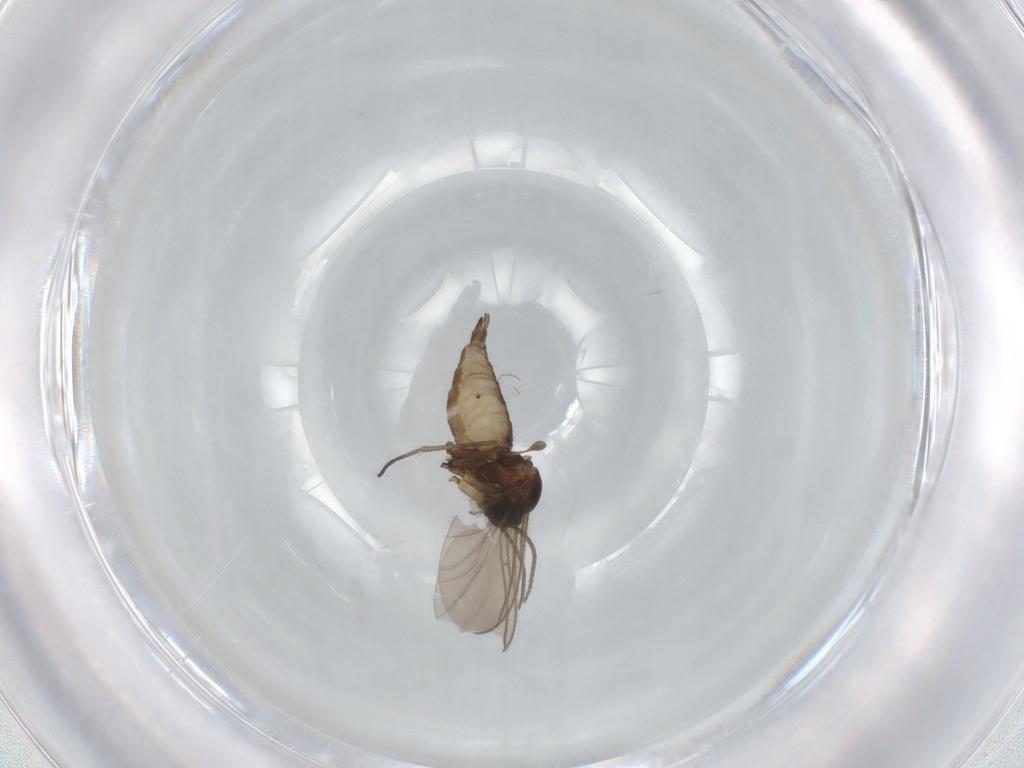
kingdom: Animalia
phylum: Arthropoda
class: Insecta
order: Diptera
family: Sciaridae
